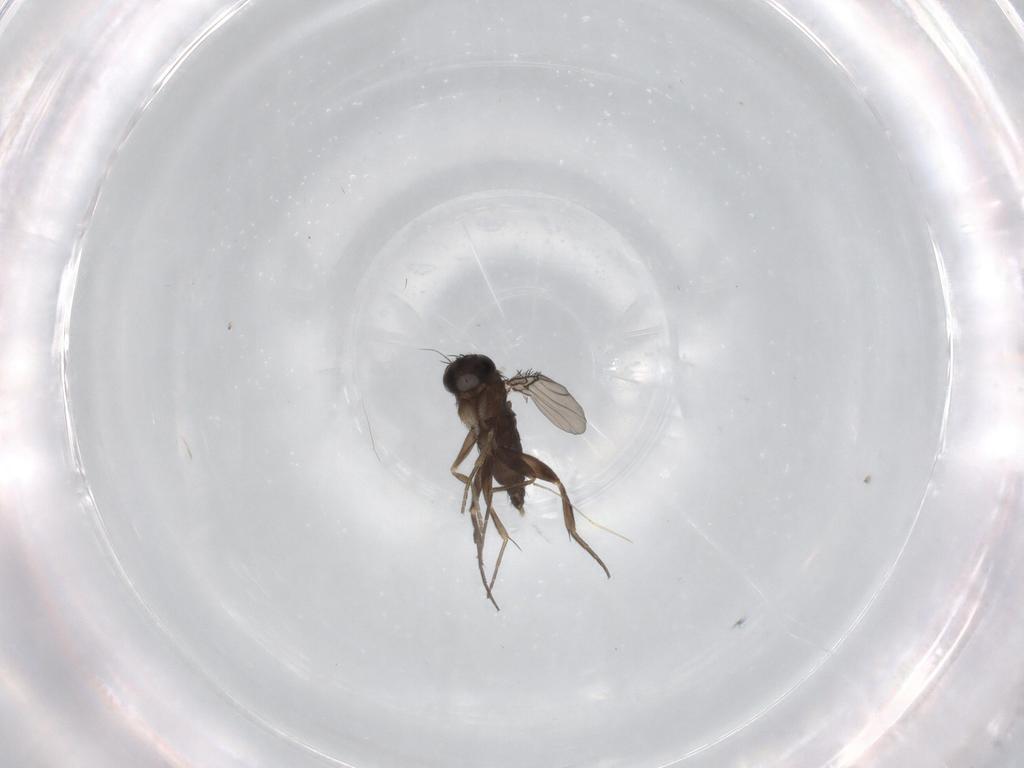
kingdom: Animalia
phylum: Arthropoda
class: Insecta
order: Diptera
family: Phoridae
